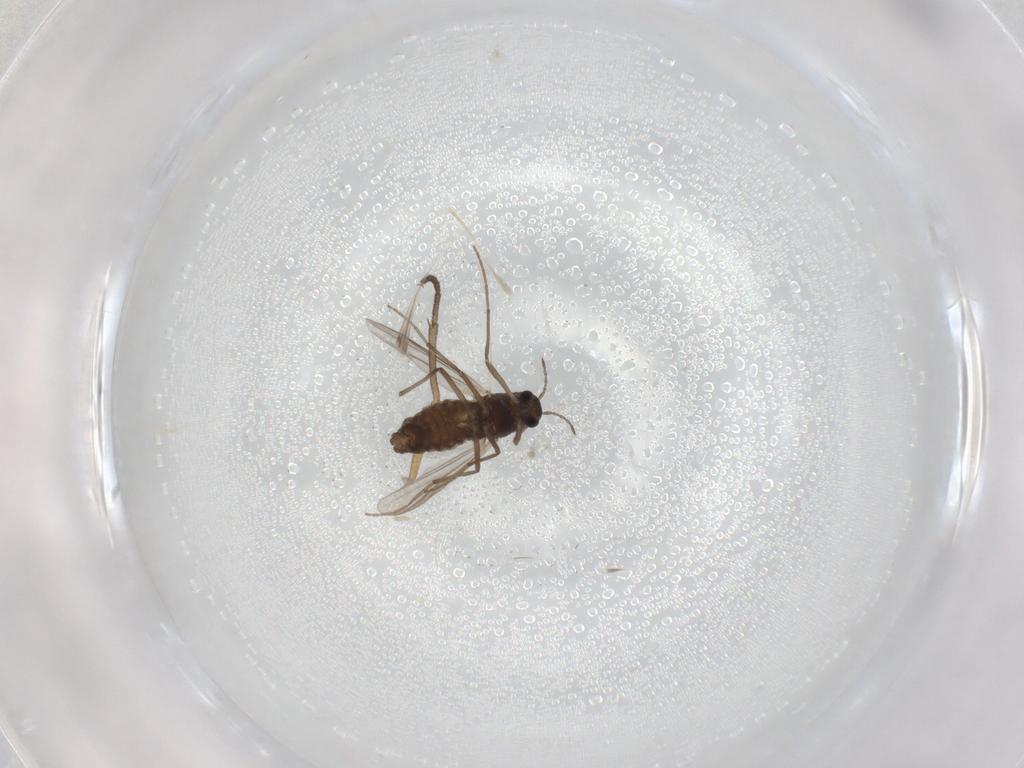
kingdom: Animalia
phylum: Arthropoda
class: Insecta
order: Diptera
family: Chironomidae
